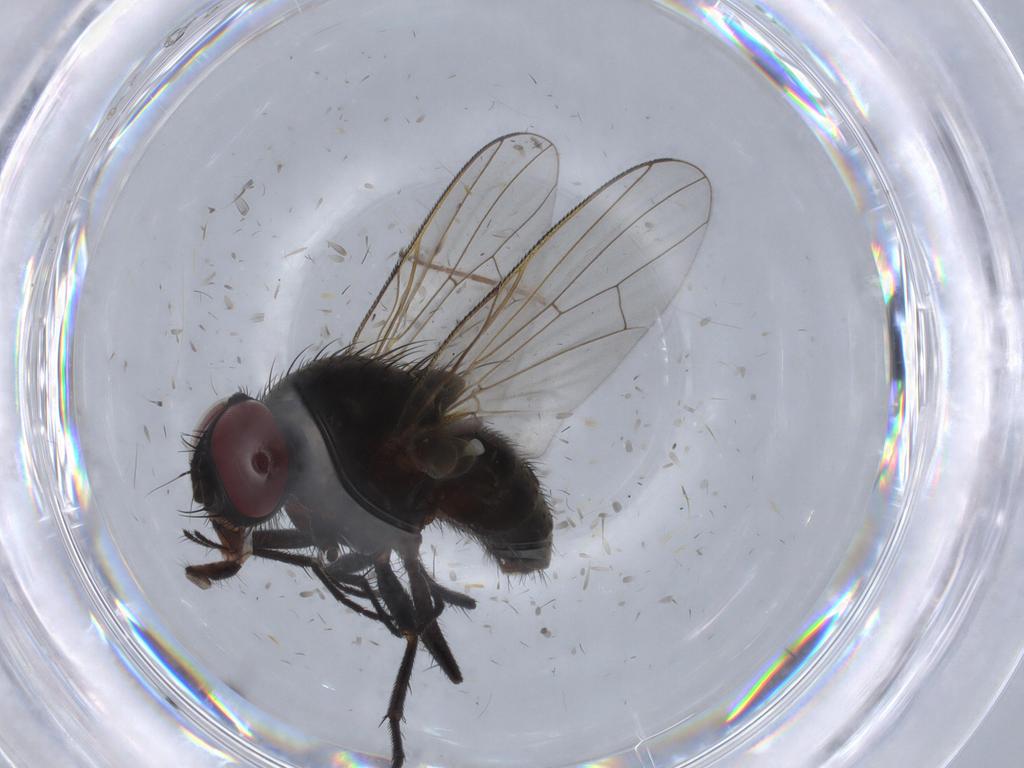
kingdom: Animalia
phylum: Arthropoda
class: Insecta
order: Diptera
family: Muscidae
